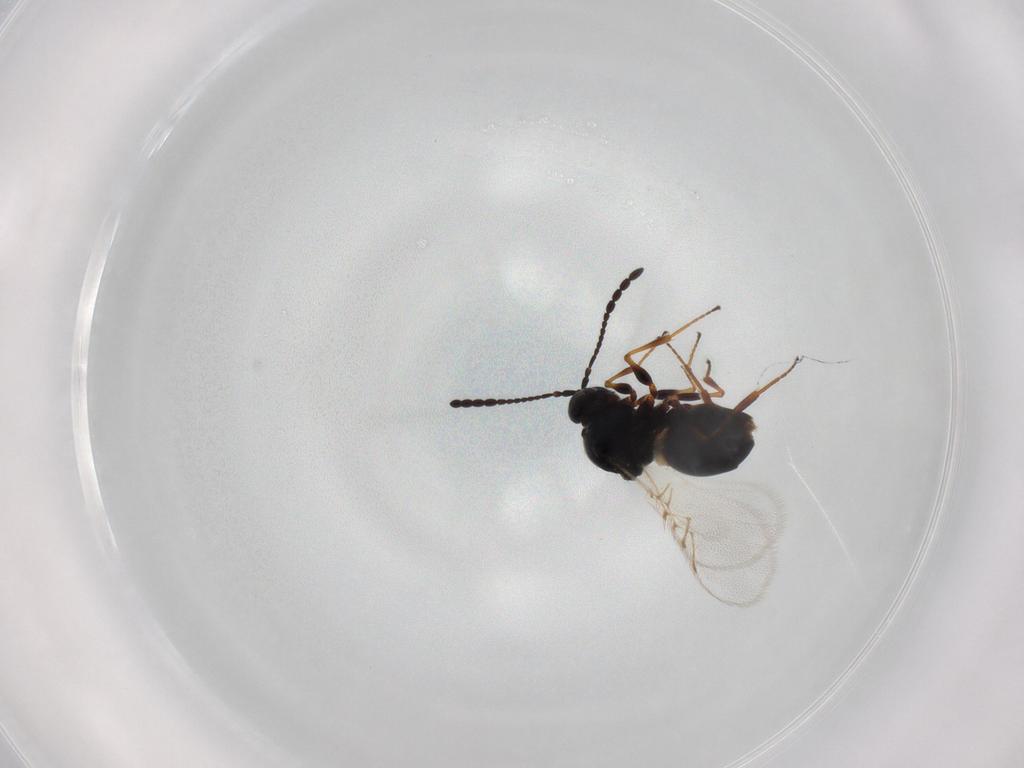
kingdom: Animalia
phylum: Arthropoda
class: Insecta
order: Hymenoptera
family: Figitidae
